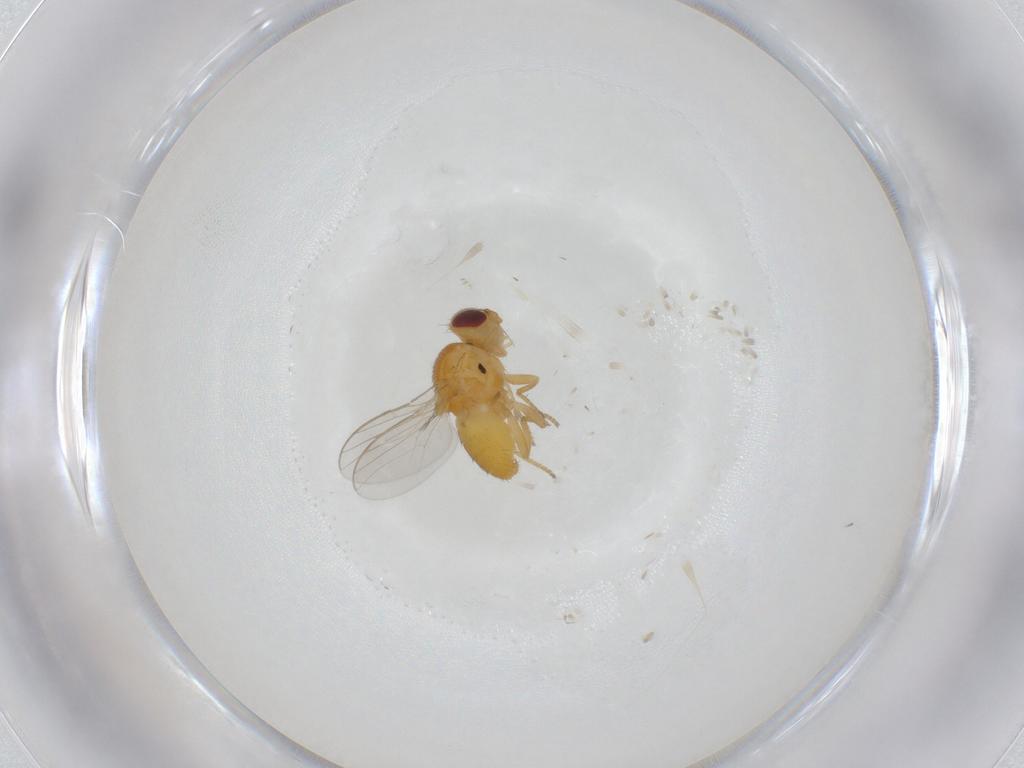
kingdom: Animalia
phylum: Arthropoda
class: Insecta
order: Diptera
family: Chloropidae
